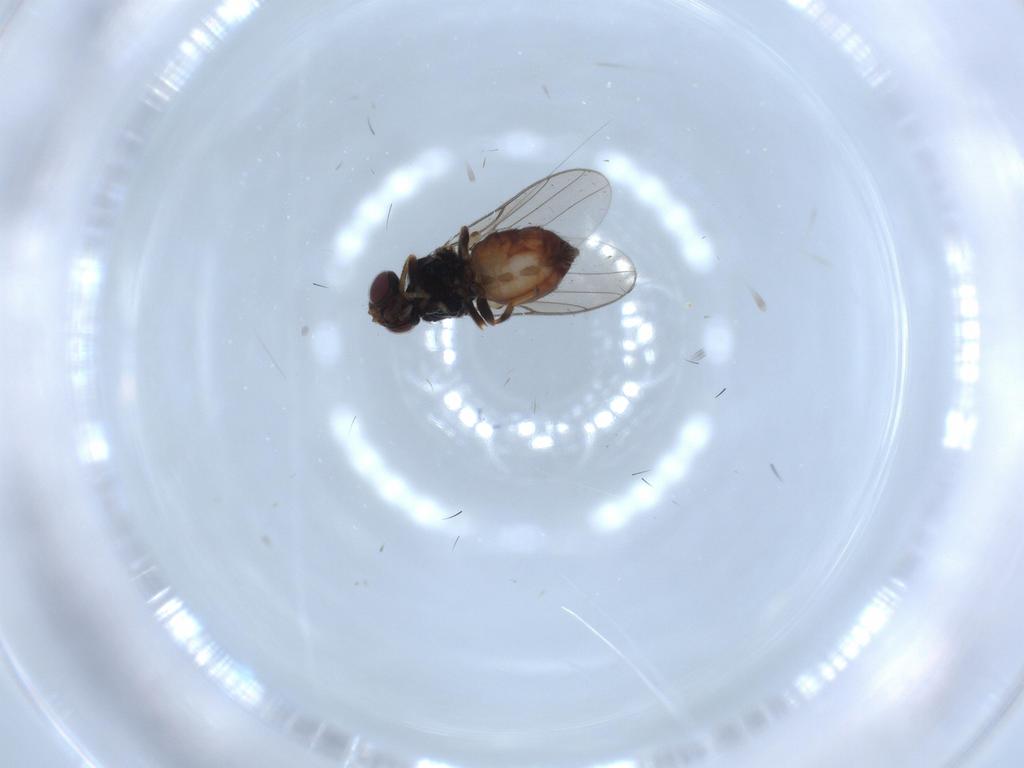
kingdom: Animalia
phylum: Arthropoda
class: Insecta
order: Diptera
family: Chloropidae
